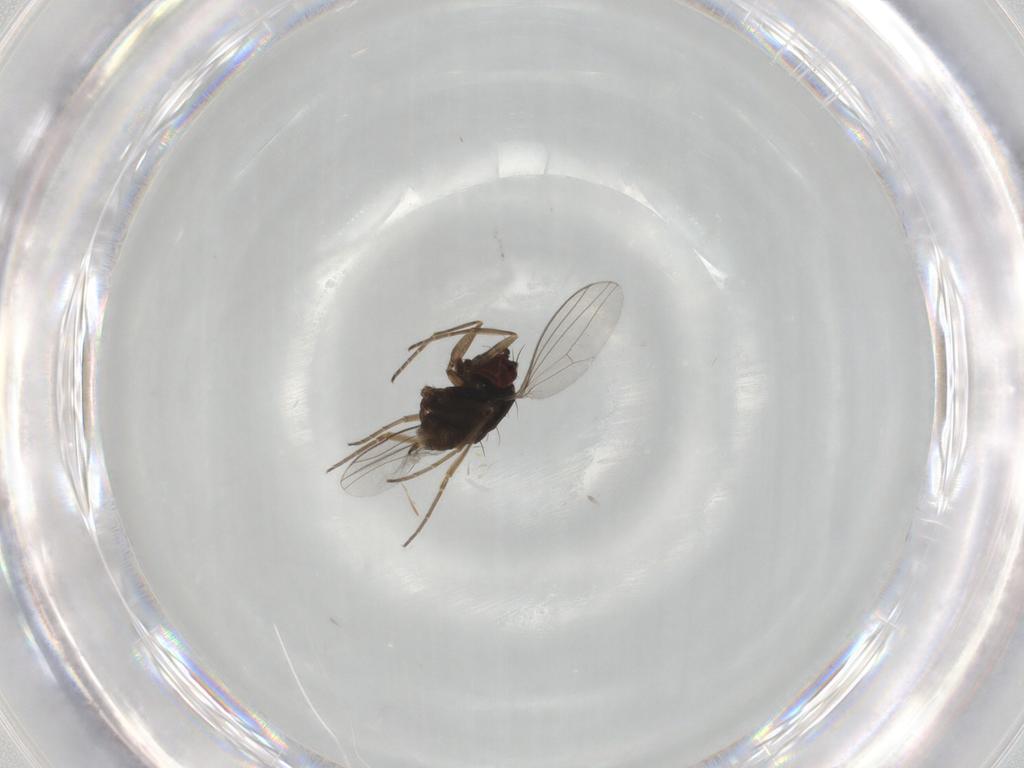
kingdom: Animalia
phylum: Arthropoda
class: Insecta
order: Diptera
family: Dolichopodidae
